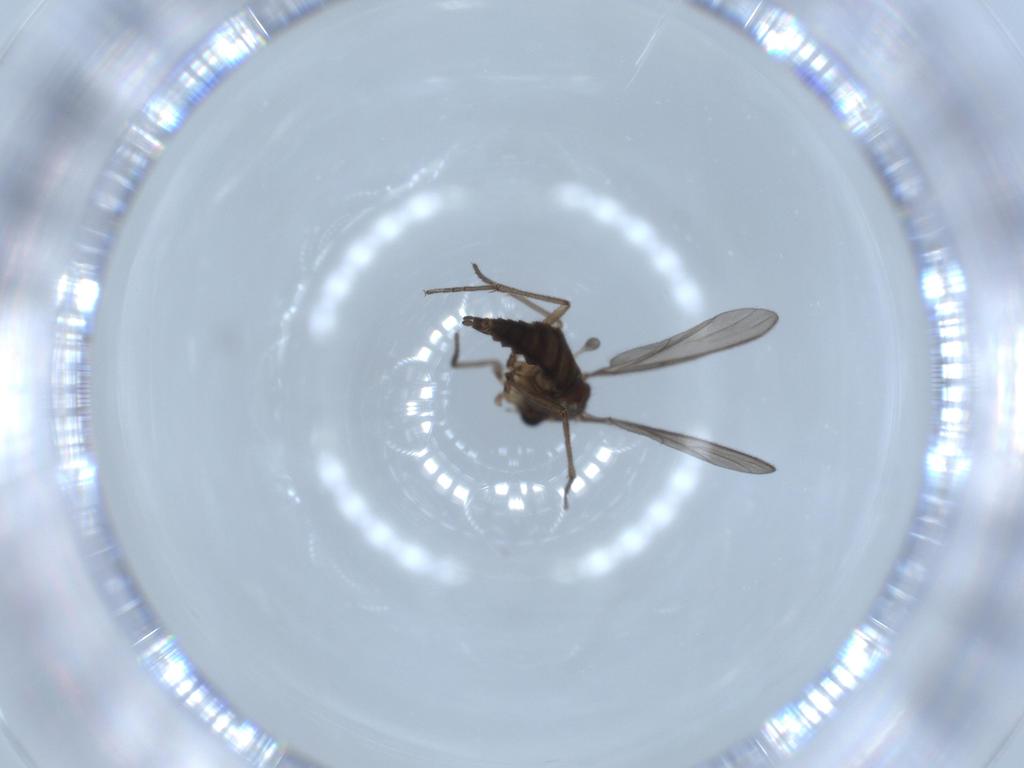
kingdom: Animalia
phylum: Arthropoda
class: Insecta
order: Diptera
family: Sciaridae
